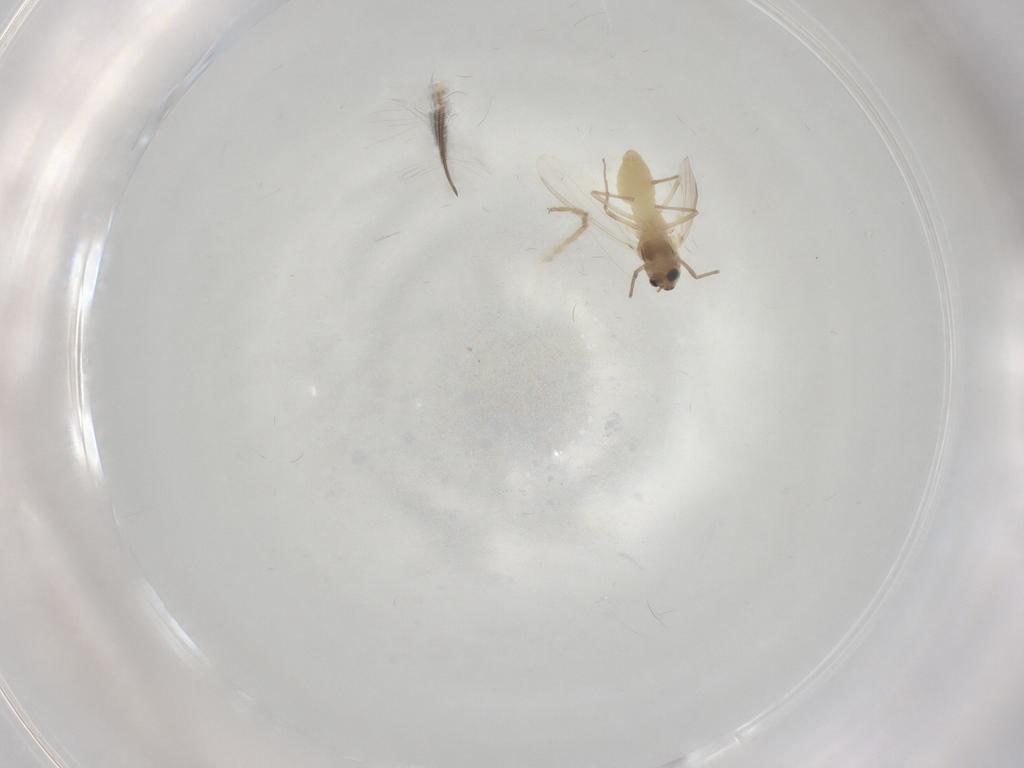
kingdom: Animalia
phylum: Arthropoda
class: Insecta
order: Diptera
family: Chironomidae
